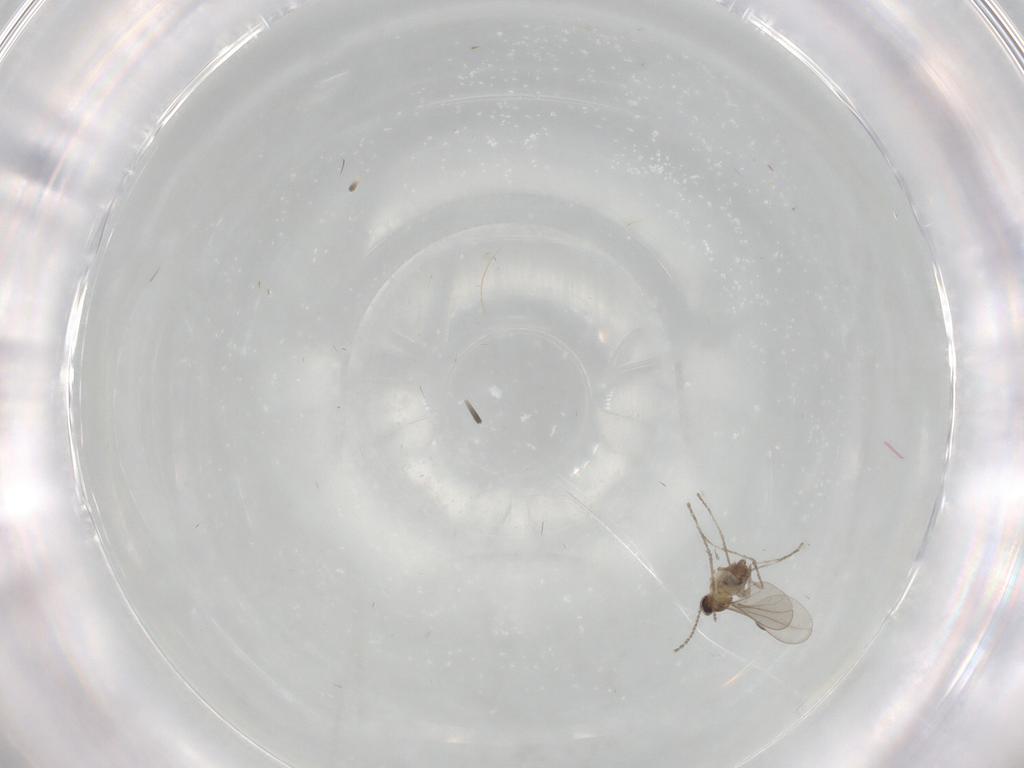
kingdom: Animalia
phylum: Arthropoda
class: Insecta
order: Diptera
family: Cecidomyiidae
